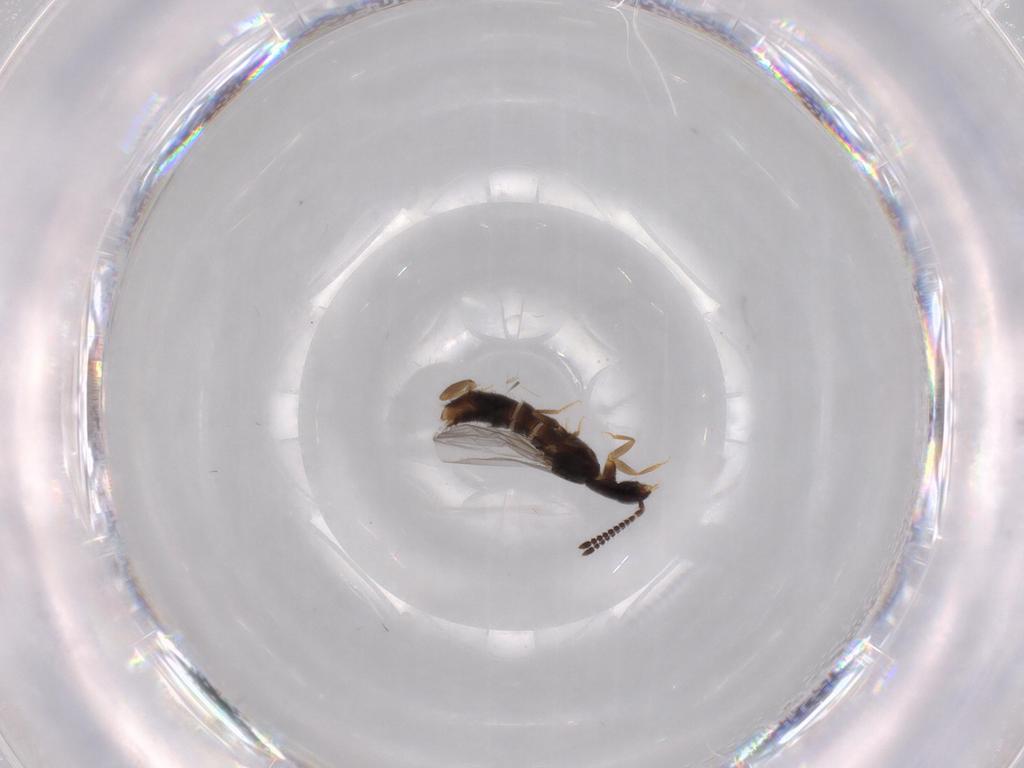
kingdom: Animalia
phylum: Arthropoda
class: Insecta
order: Coleoptera
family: Staphylinidae
